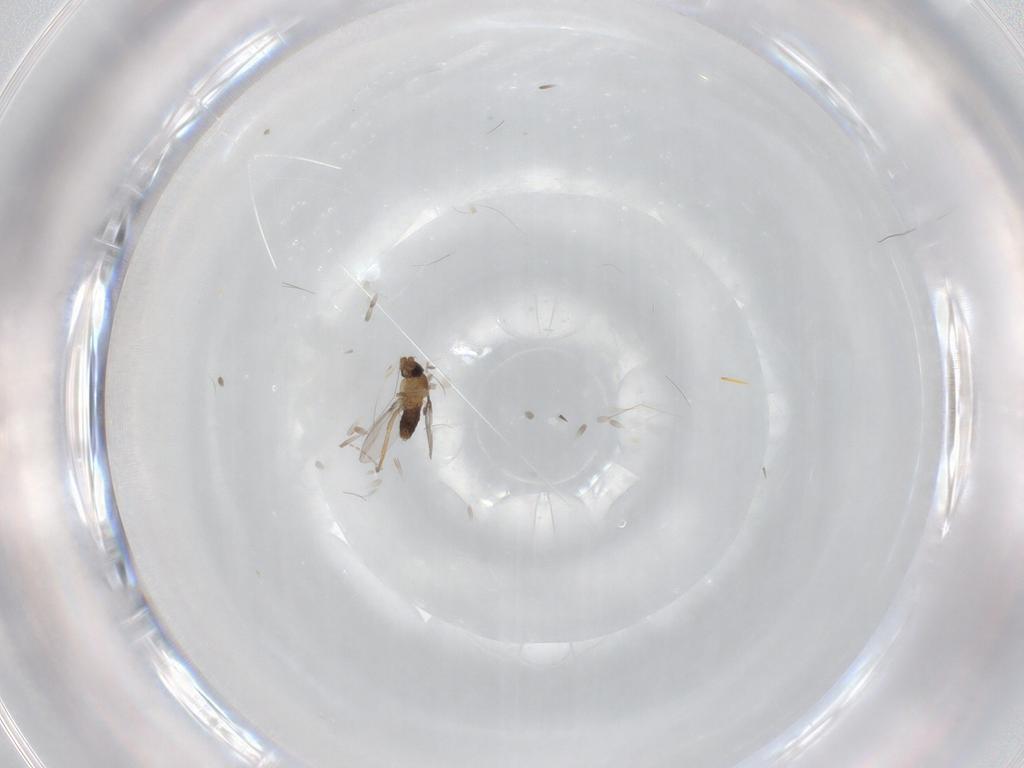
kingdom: Animalia
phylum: Arthropoda
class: Insecta
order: Diptera
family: Phoridae
